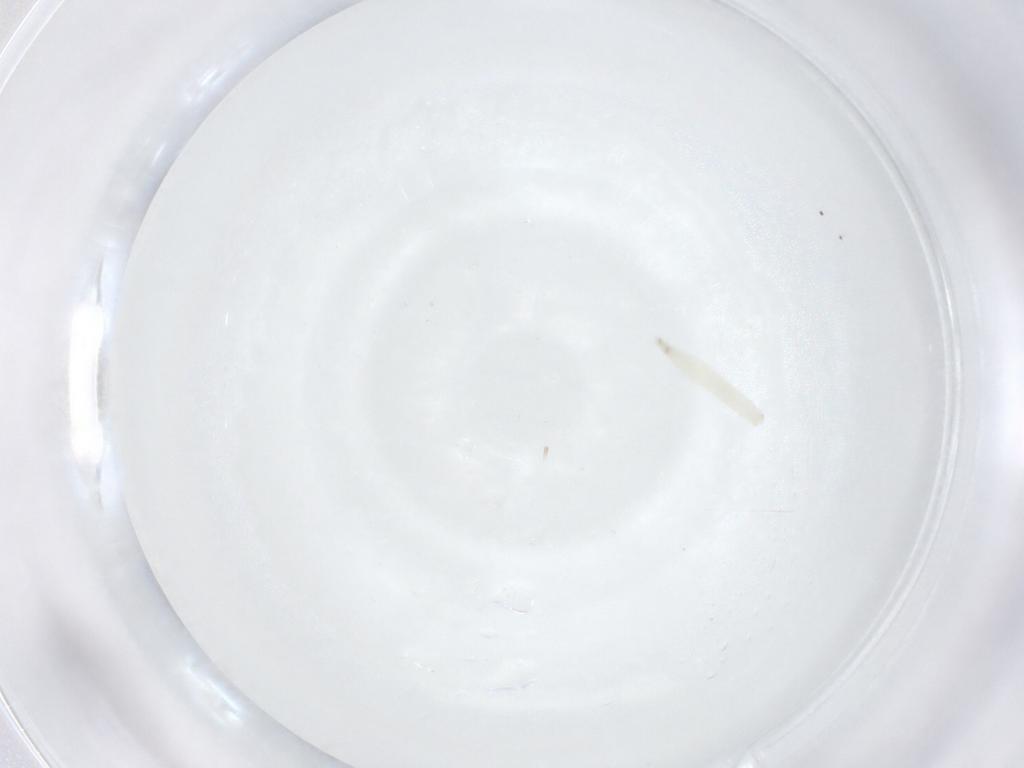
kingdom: Animalia
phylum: Arthropoda
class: Insecta
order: Diptera
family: Sarcophagidae
